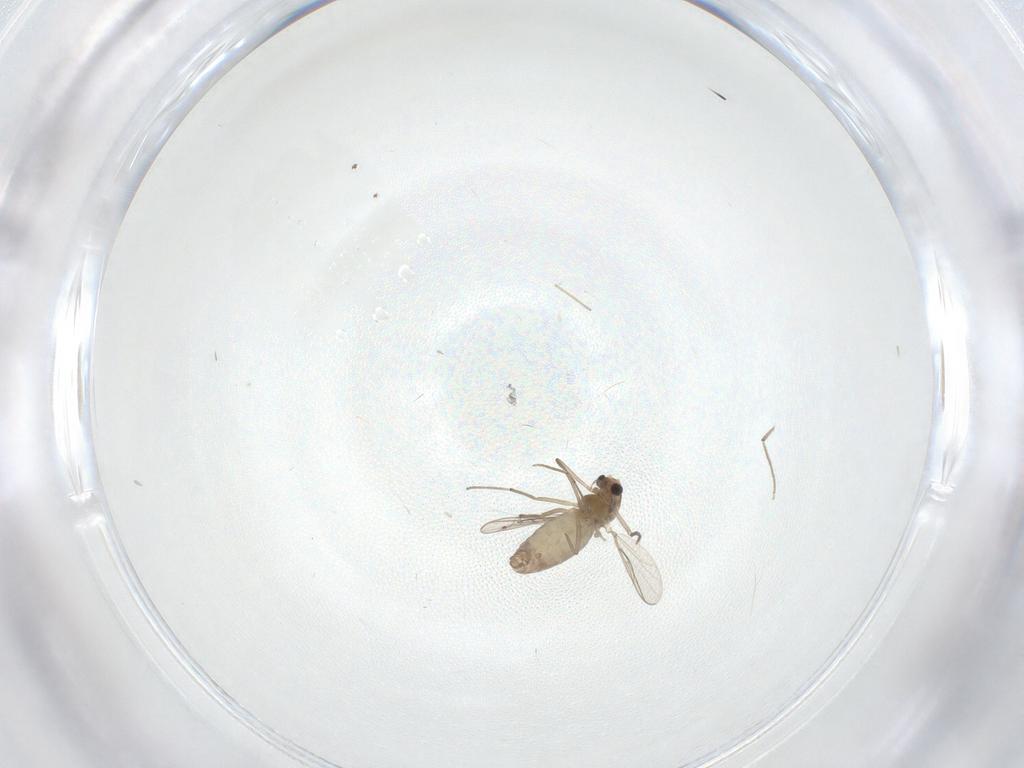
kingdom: Animalia
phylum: Arthropoda
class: Insecta
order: Diptera
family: Chironomidae
